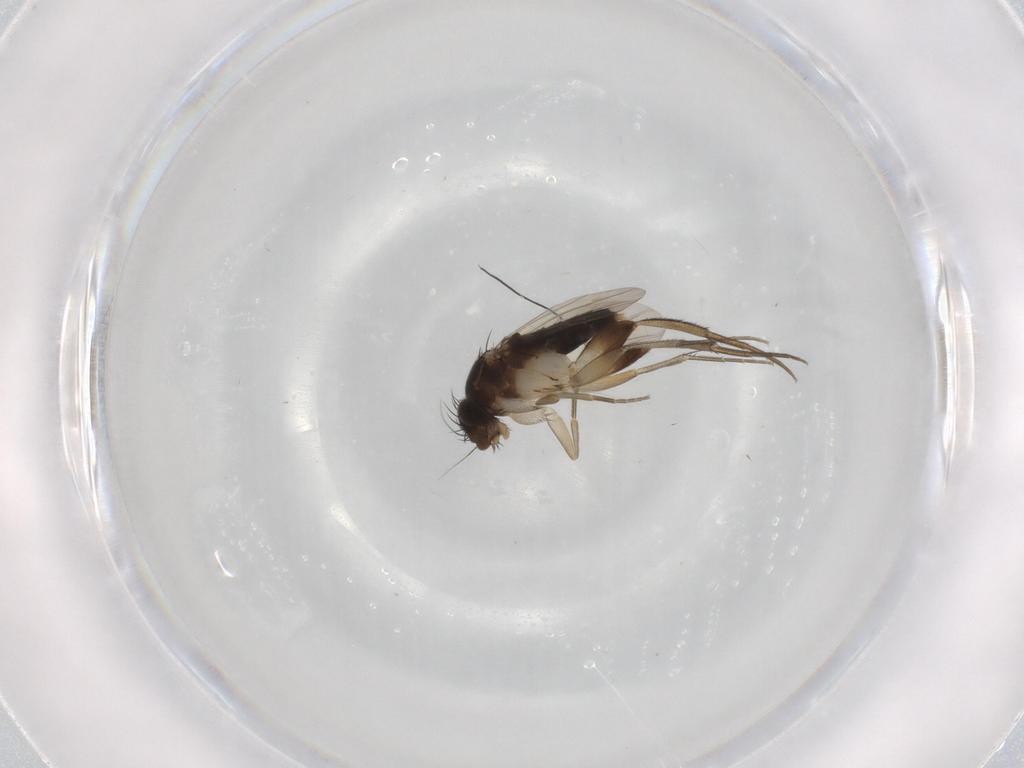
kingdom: Animalia
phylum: Arthropoda
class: Insecta
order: Diptera
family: Phoridae
